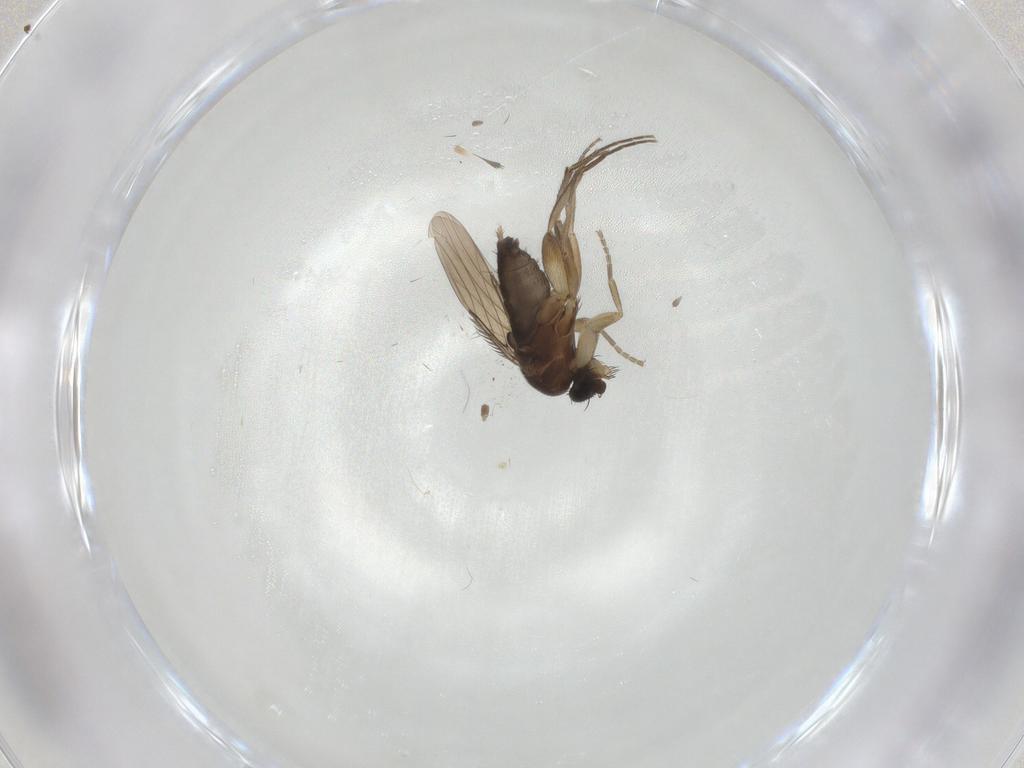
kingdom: Animalia
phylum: Arthropoda
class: Insecta
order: Diptera
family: Phoridae
